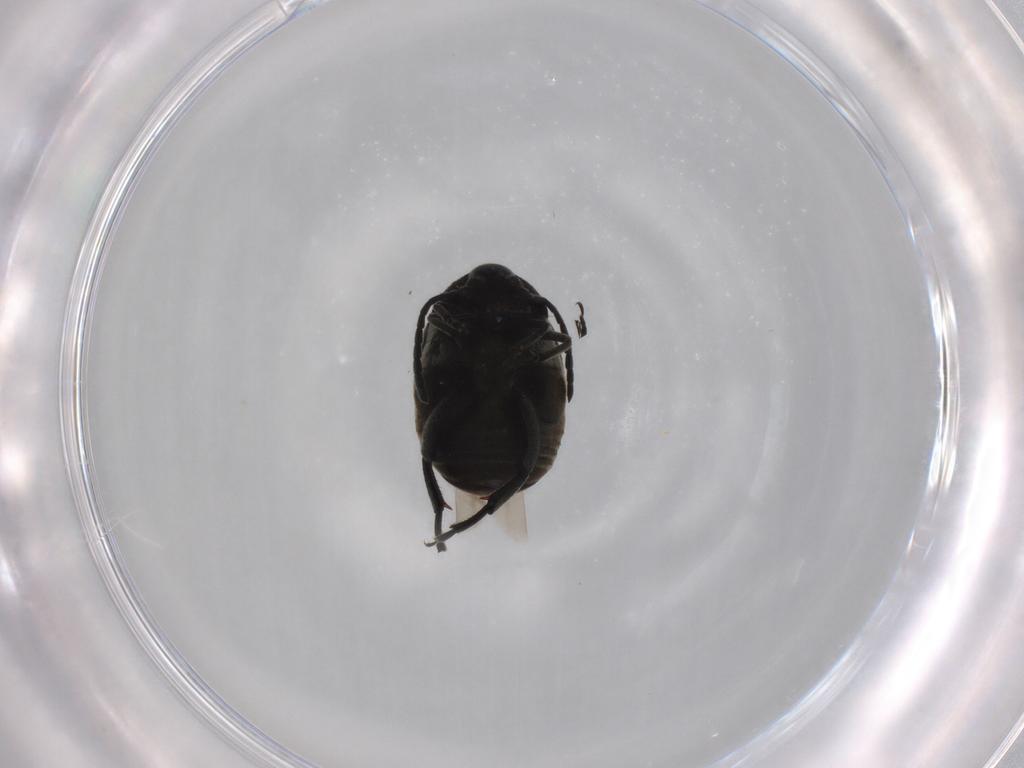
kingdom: Animalia
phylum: Arthropoda
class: Insecta
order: Coleoptera
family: Chrysomelidae
